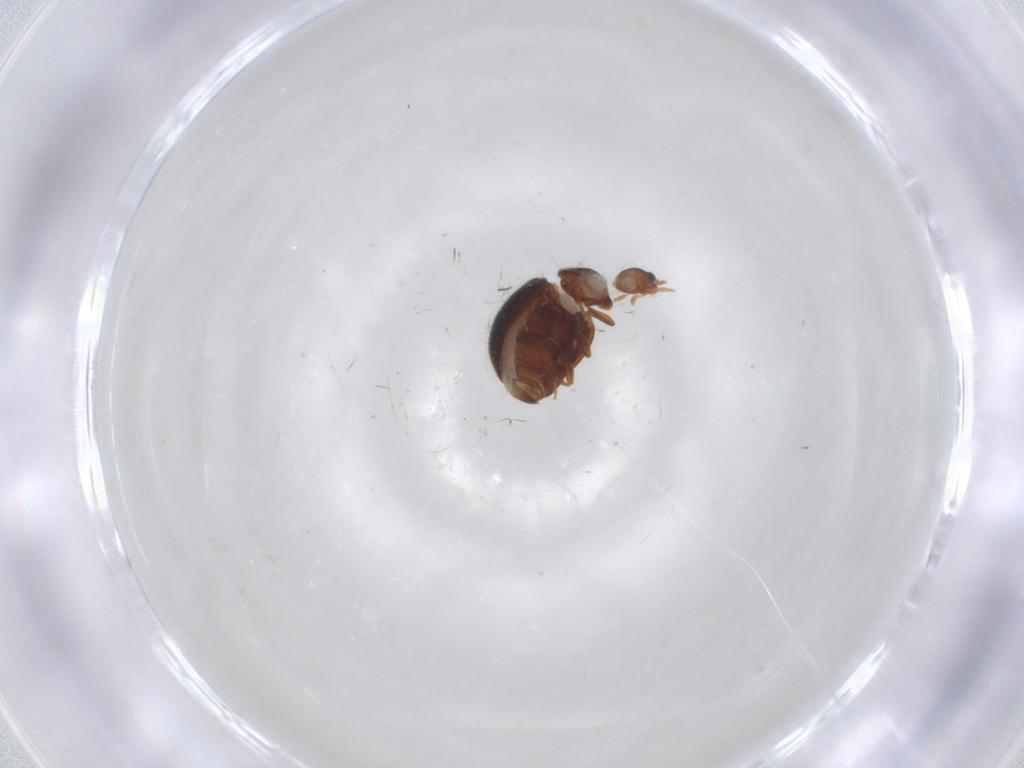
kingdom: Animalia
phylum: Arthropoda
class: Insecta
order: Coleoptera
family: Coccinellidae
